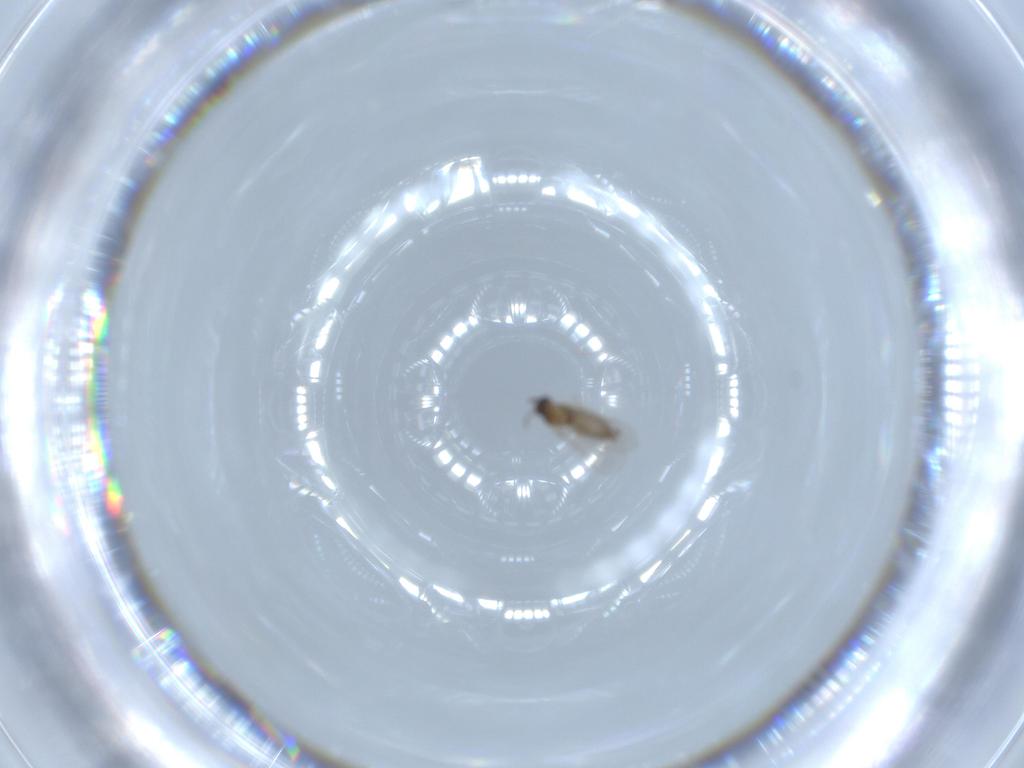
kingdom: Animalia
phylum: Arthropoda
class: Insecta
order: Diptera
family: Cecidomyiidae
